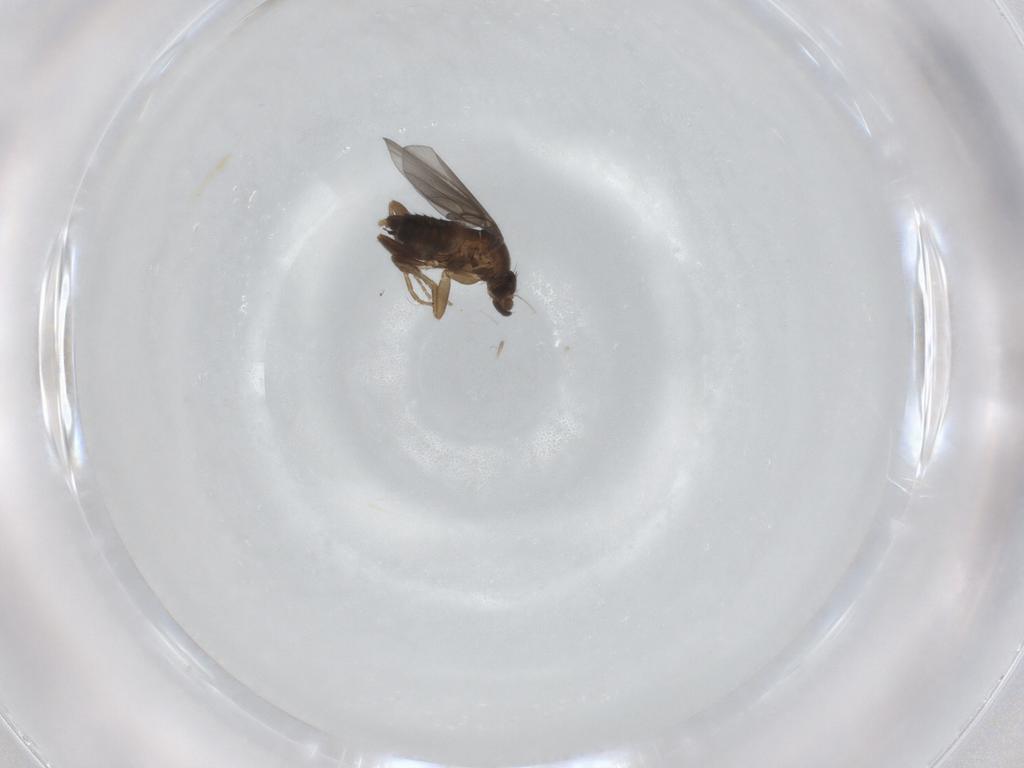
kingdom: Animalia
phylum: Arthropoda
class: Insecta
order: Diptera
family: Phoridae
